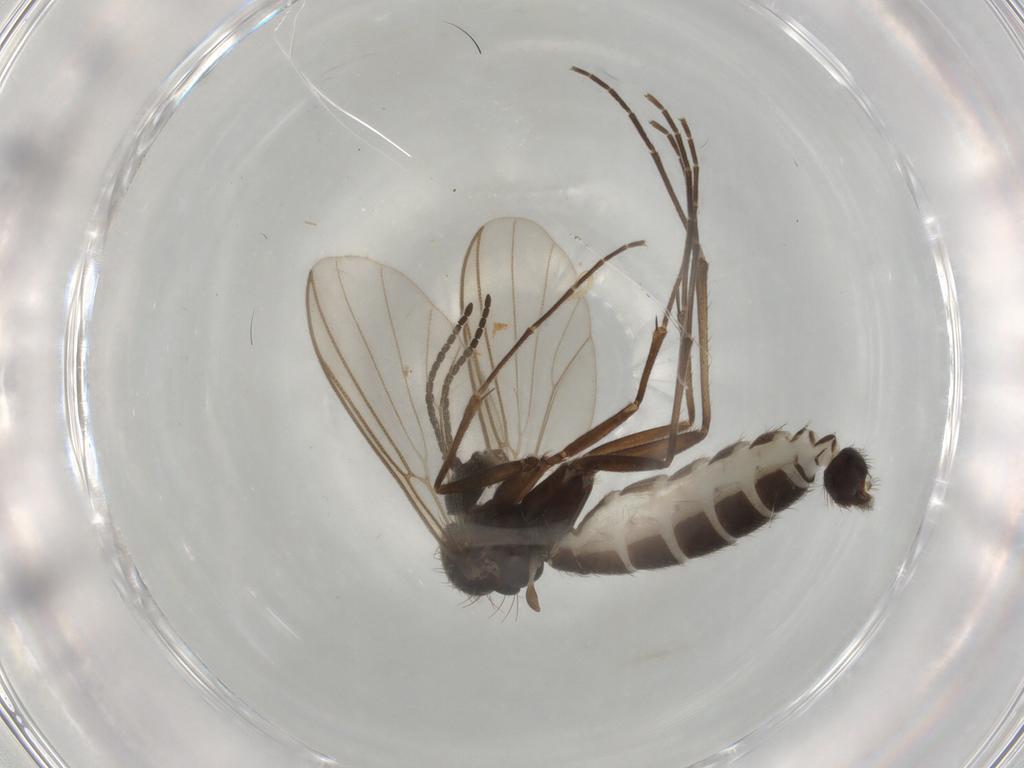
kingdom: Animalia
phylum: Arthropoda
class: Insecta
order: Diptera
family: Mycetophilidae
